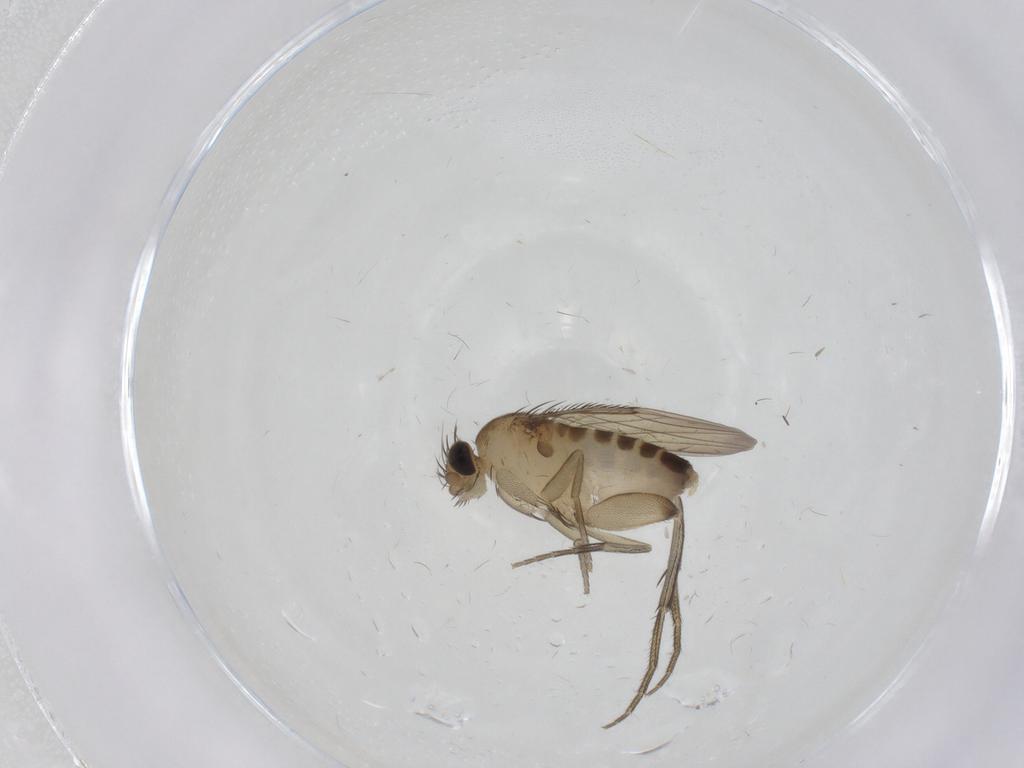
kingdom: Animalia
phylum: Arthropoda
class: Insecta
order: Diptera
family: Phoridae
